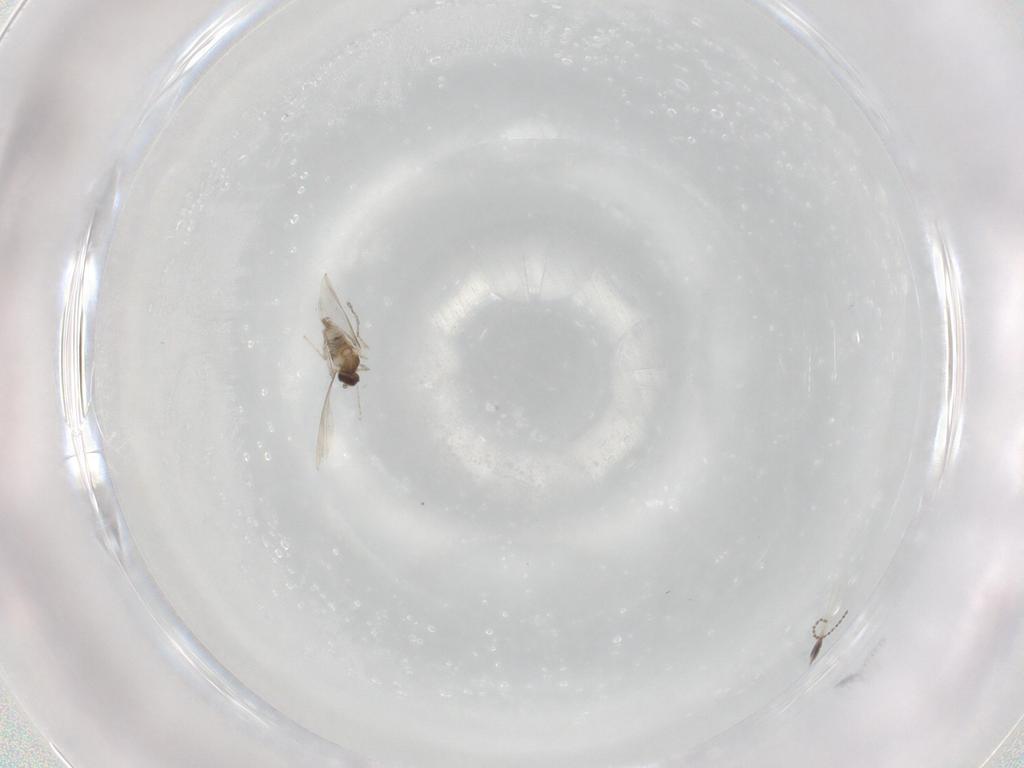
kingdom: Animalia
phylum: Arthropoda
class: Insecta
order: Diptera
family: Cecidomyiidae
